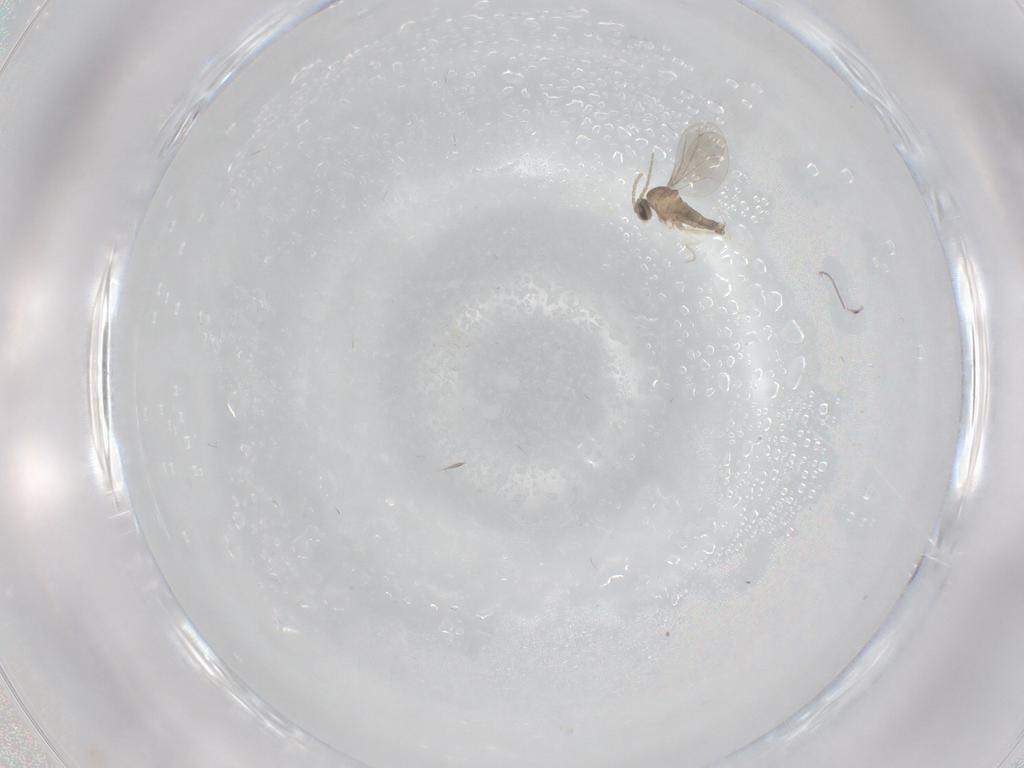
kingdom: Animalia
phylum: Arthropoda
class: Insecta
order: Diptera
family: Cecidomyiidae
